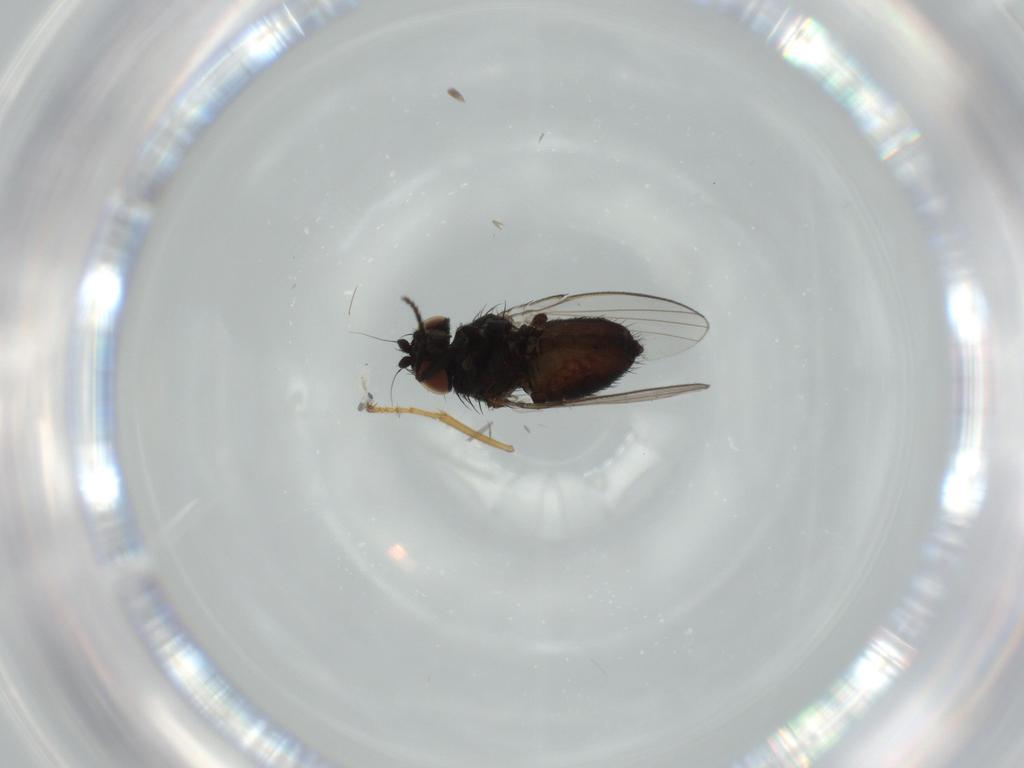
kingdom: Animalia
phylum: Arthropoda
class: Insecta
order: Diptera
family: Milichiidae
